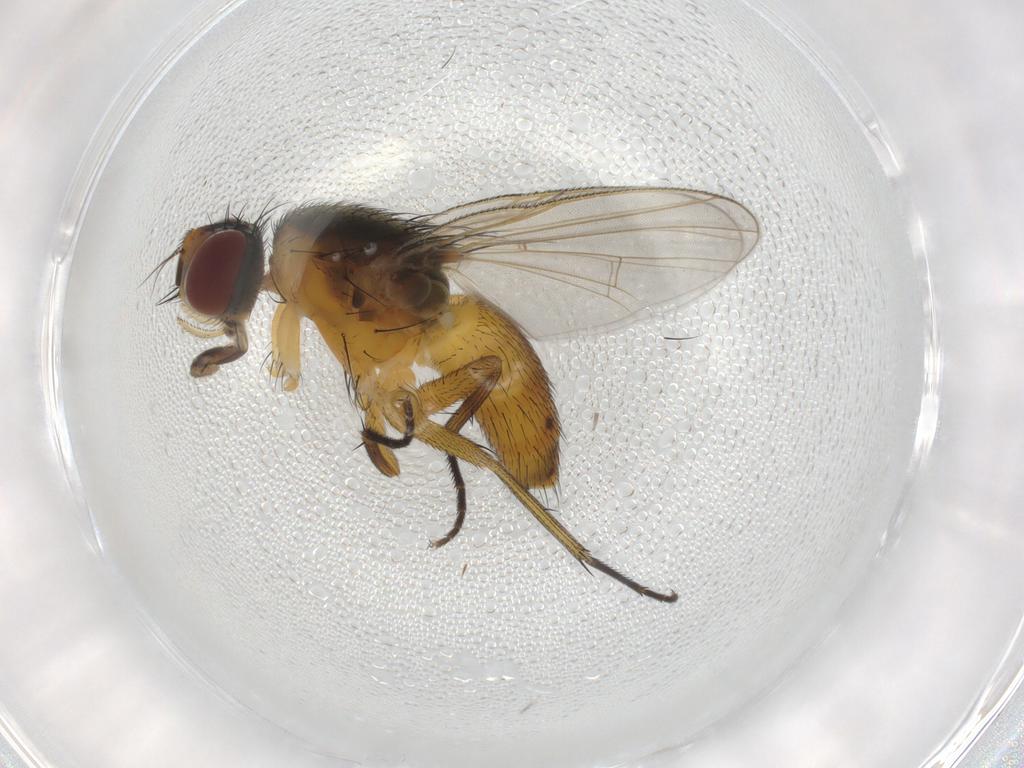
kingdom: Animalia
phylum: Arthropoda
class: Insecta
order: Diptera
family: Muscidae
